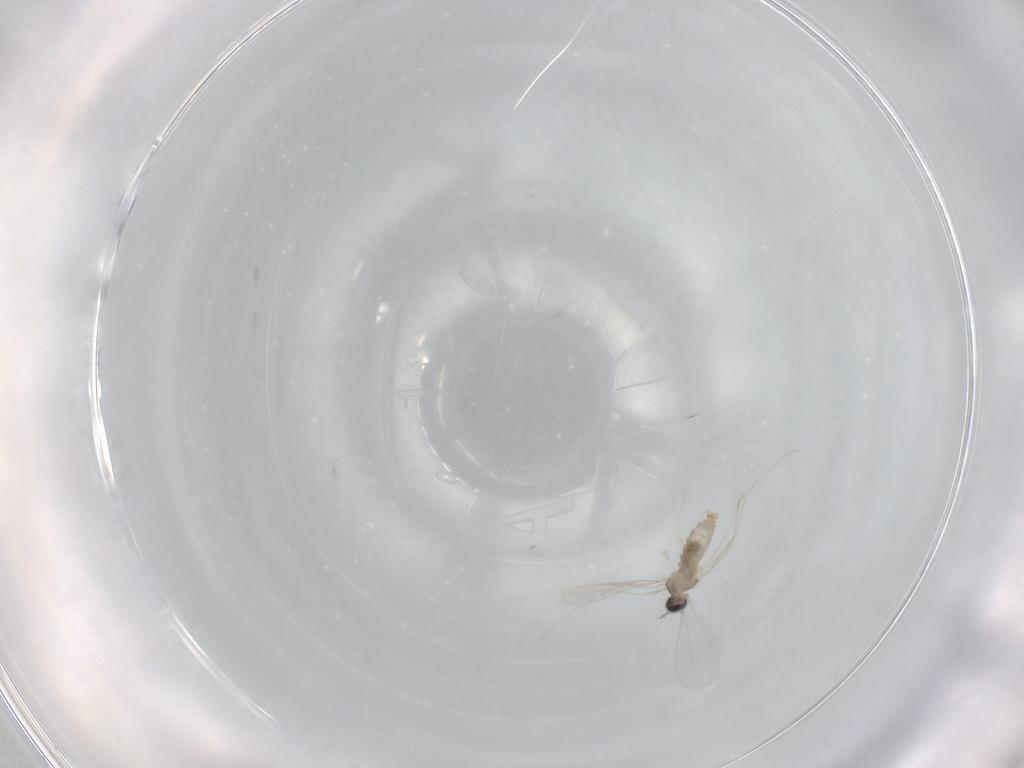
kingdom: Animalia
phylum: Arthropoda
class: Insecta
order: Diptera
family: Cecidomyiidae
